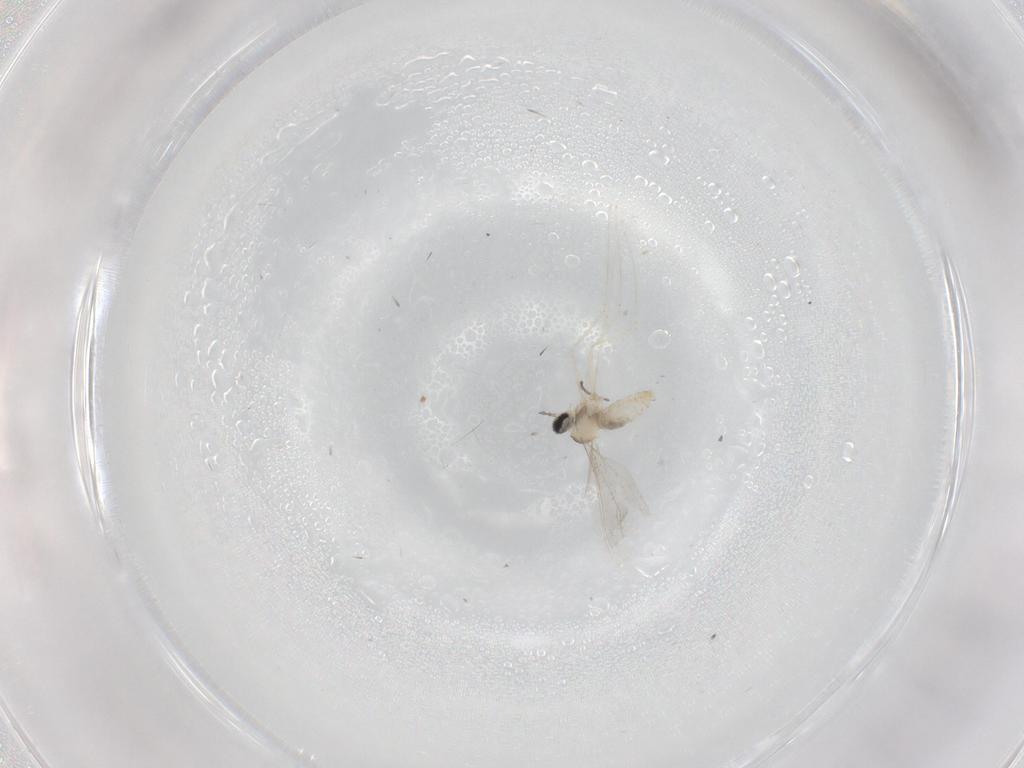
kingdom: Animalia
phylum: Arthropoda
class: Insecta
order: Diptera
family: Cecidomyiidae
